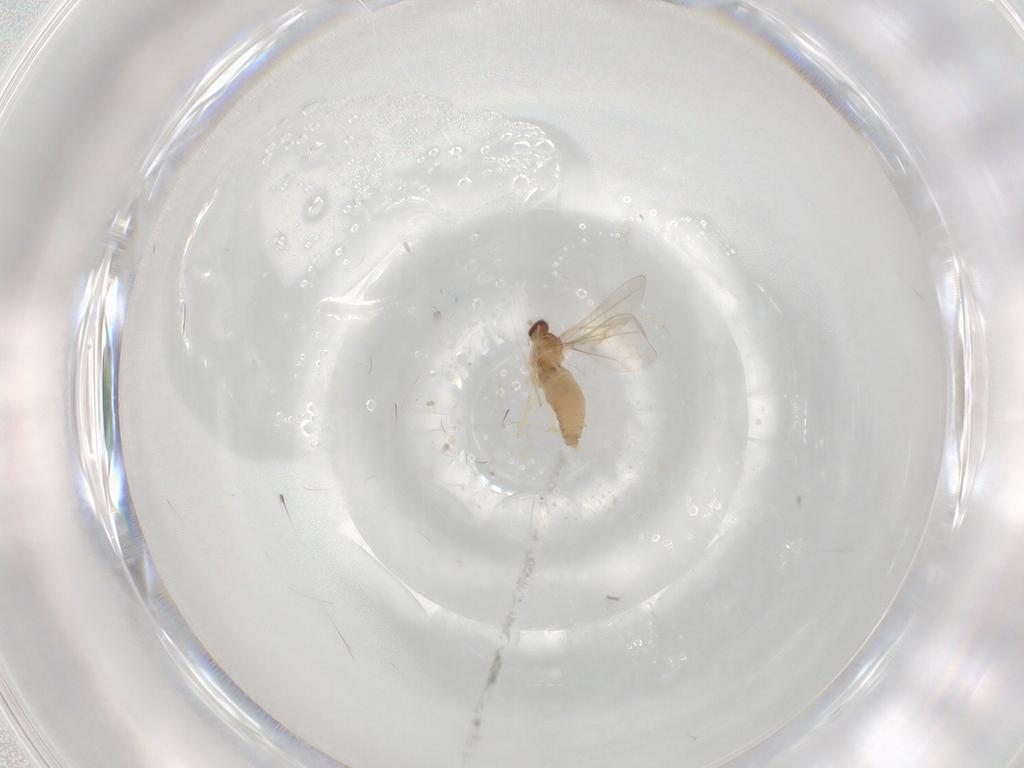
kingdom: Animalia
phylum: Arthropoda
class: Insecta
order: Diptera
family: Cecidomyiidae
